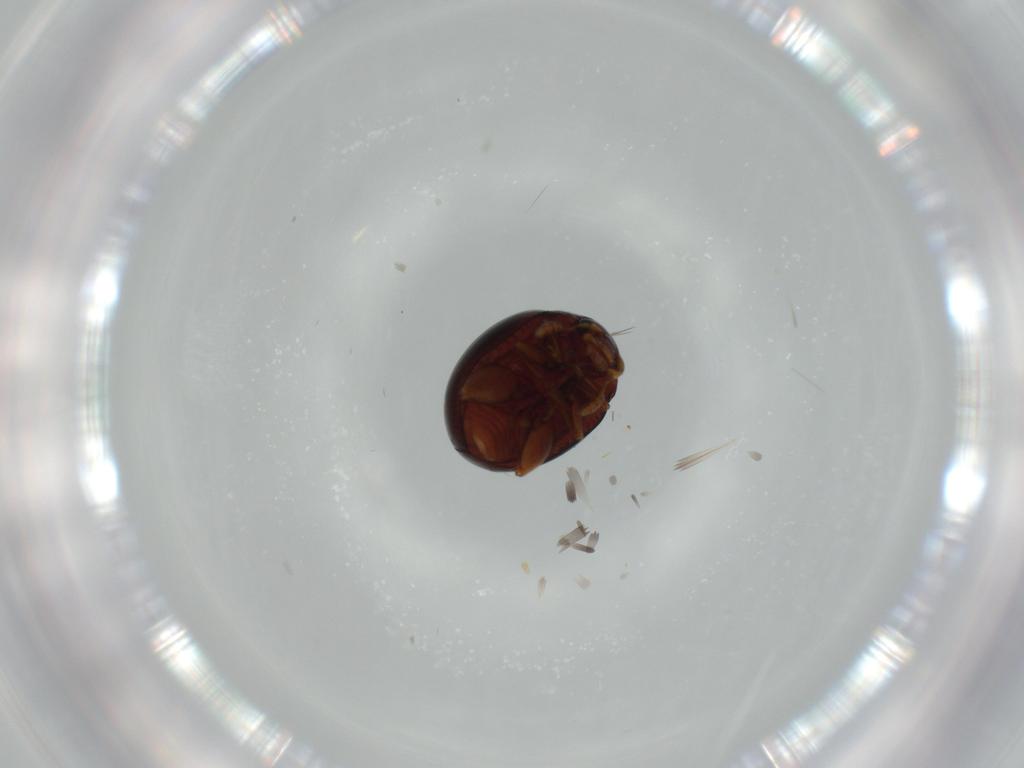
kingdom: Animalia
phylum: Arthropoda
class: Insecta
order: Coleoptera
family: Chrysomelidae
